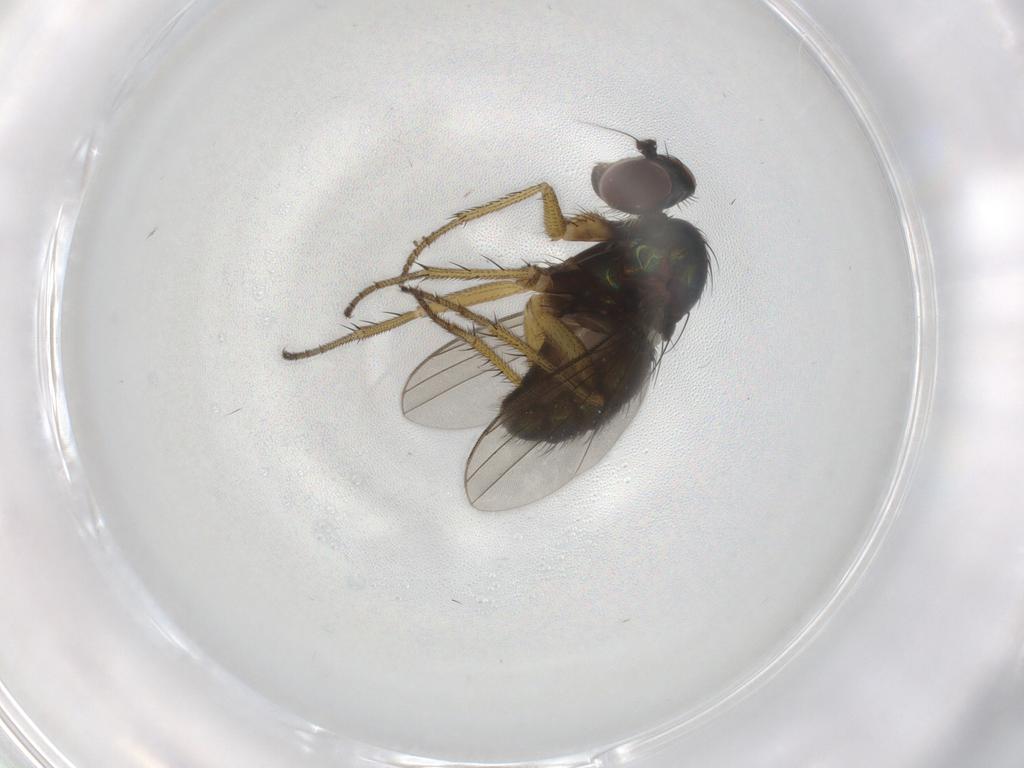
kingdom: Animalia
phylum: Arthropoda
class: Insecta
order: Diptera
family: Dolichopodidae
